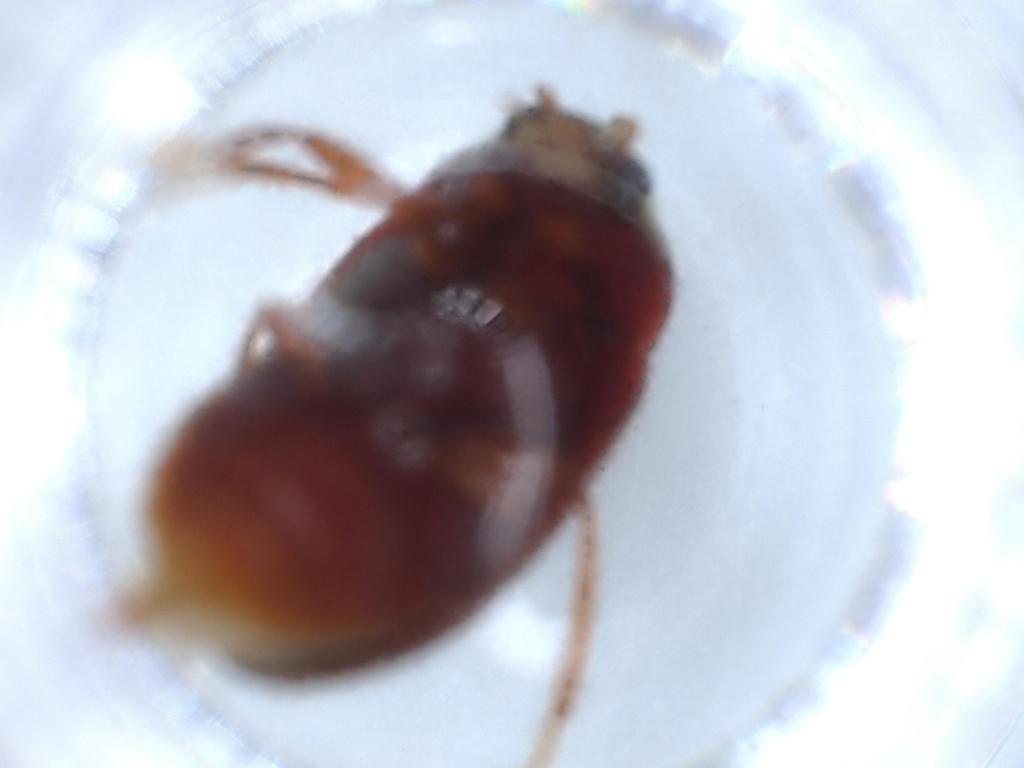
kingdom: Animalia
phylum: Arthropoda
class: Insecta
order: Coleoptera
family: Ptilodactylidae
